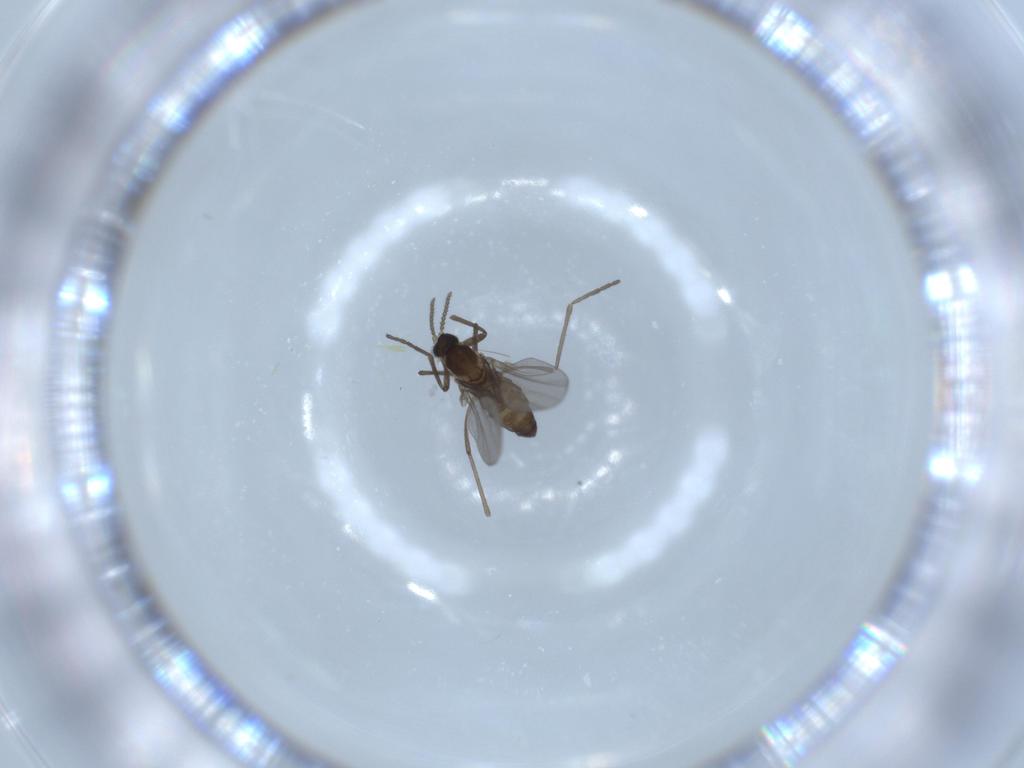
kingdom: Animalia
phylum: Arthropoda
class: Insecta
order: Diptera
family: Cecidomyiidae
